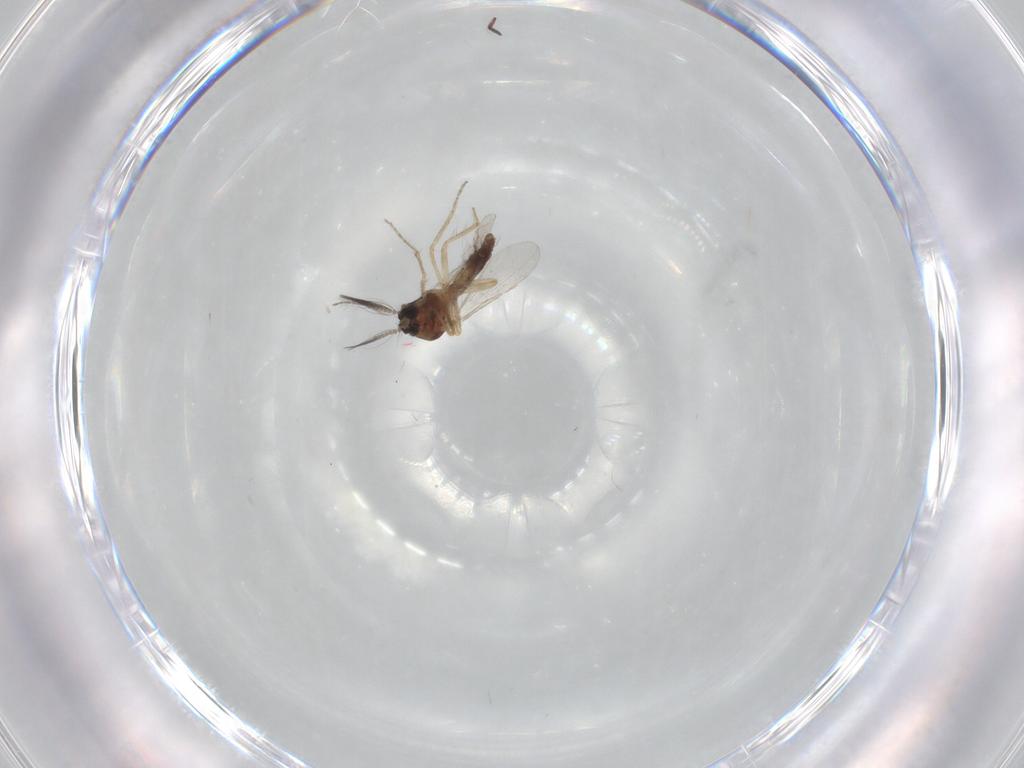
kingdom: Animalia
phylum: Arthropoda
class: Insecta
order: Diptera
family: Ceratopogonidae
